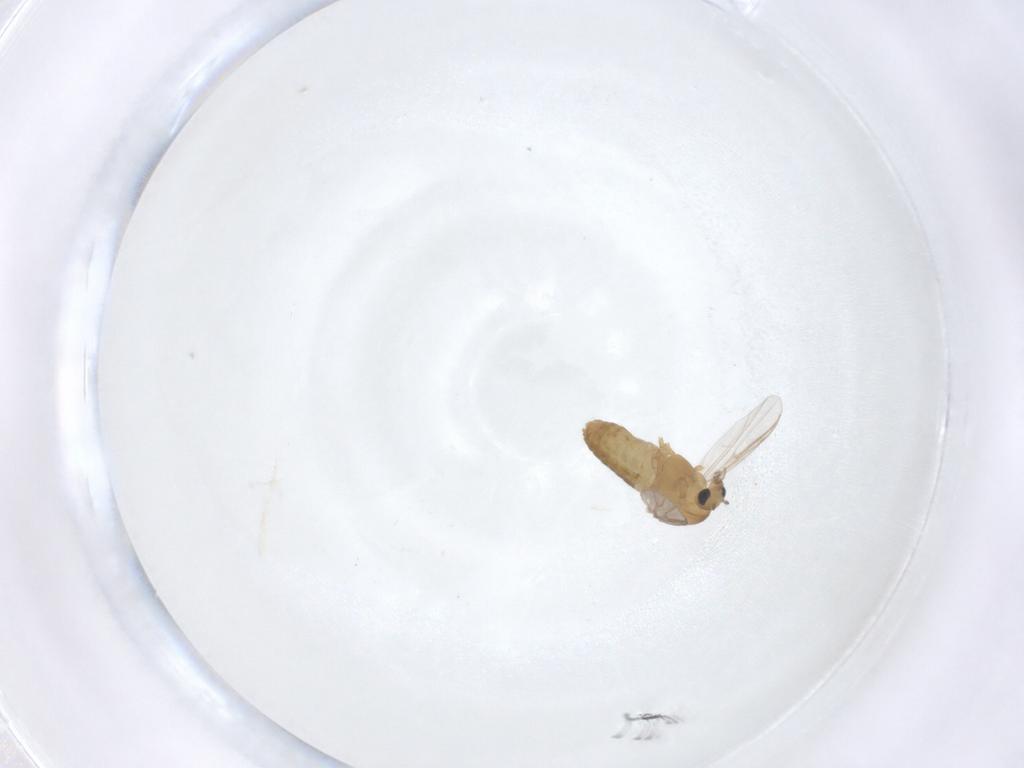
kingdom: Animalia
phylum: Arthropoda
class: Insecta
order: Diptera
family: Chironomidae
